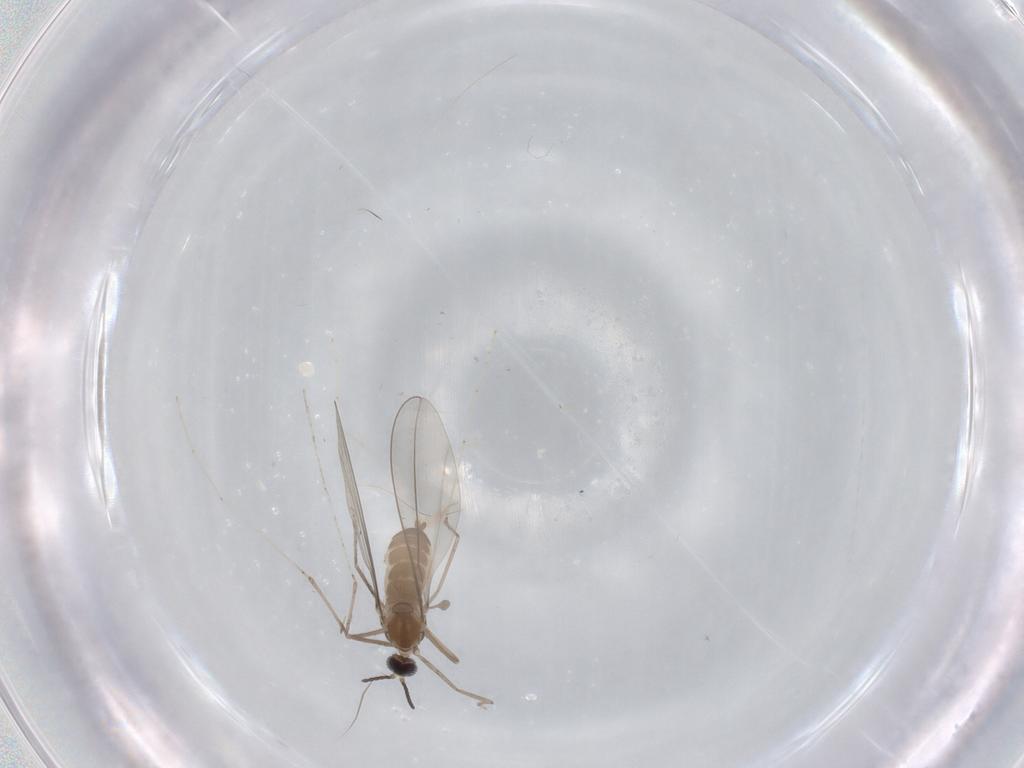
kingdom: Animalia
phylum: Arthropoda
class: Insecta
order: Diptera
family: Cecidomyiidae
